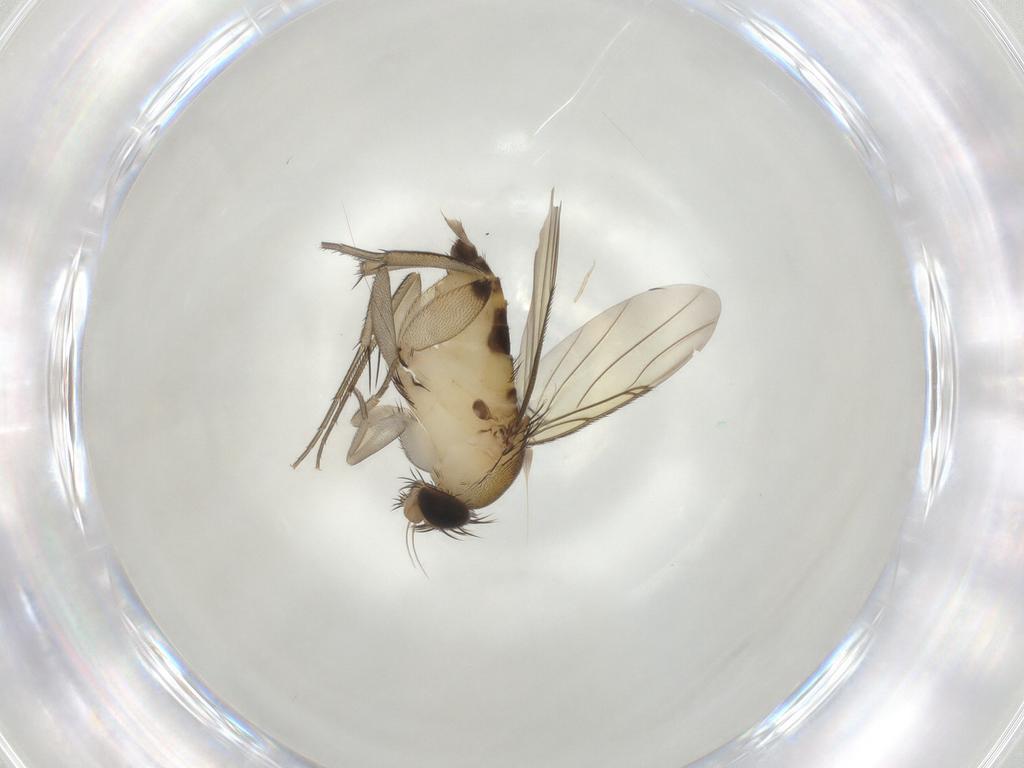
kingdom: Animalia
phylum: Arthropoda
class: Insecta
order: Diptera
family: Phoridae
